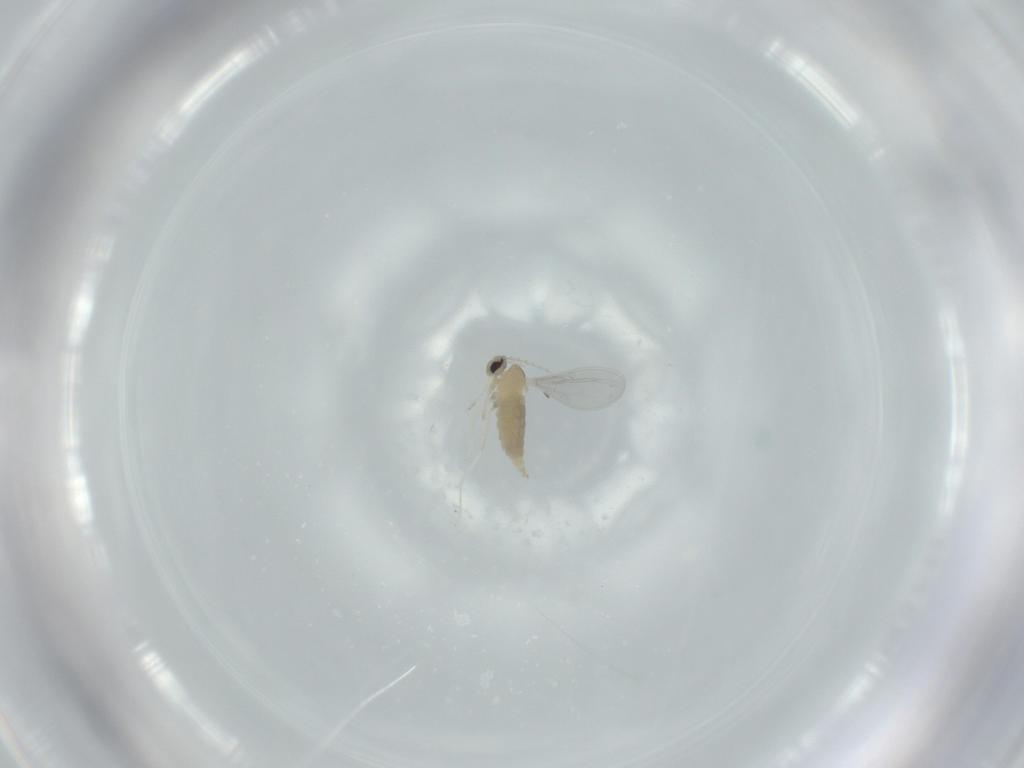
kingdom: Animalia
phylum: Arthropoda
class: Insecta
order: Diptera
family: Cecidomyiidae
